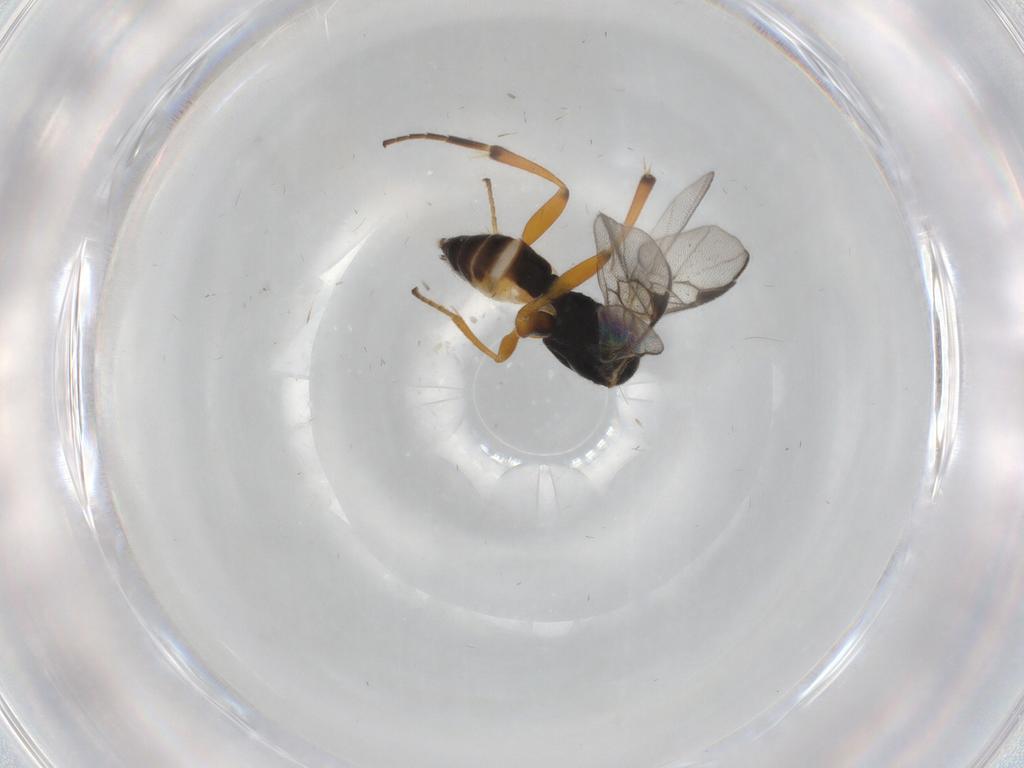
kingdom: Animalia
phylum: Arthropoda
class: Insecta
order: Hymenoptera
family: Braconidae
